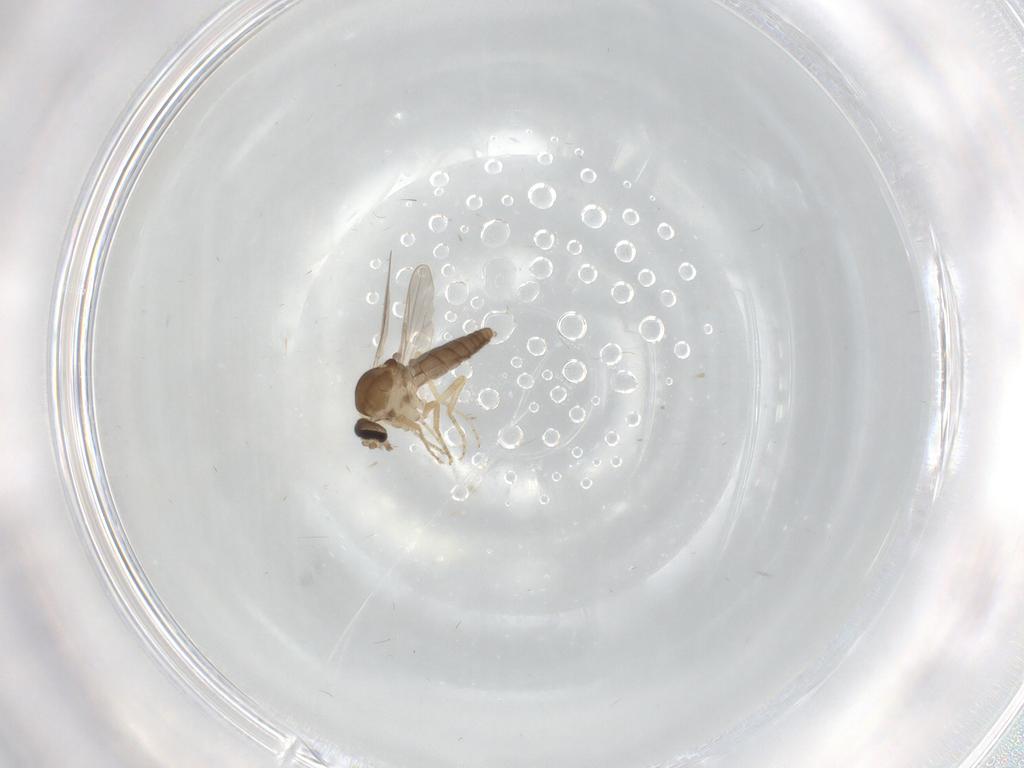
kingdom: Animalia
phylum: Arthropoda
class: Insecta
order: Diptera
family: Ceratopogonidae
